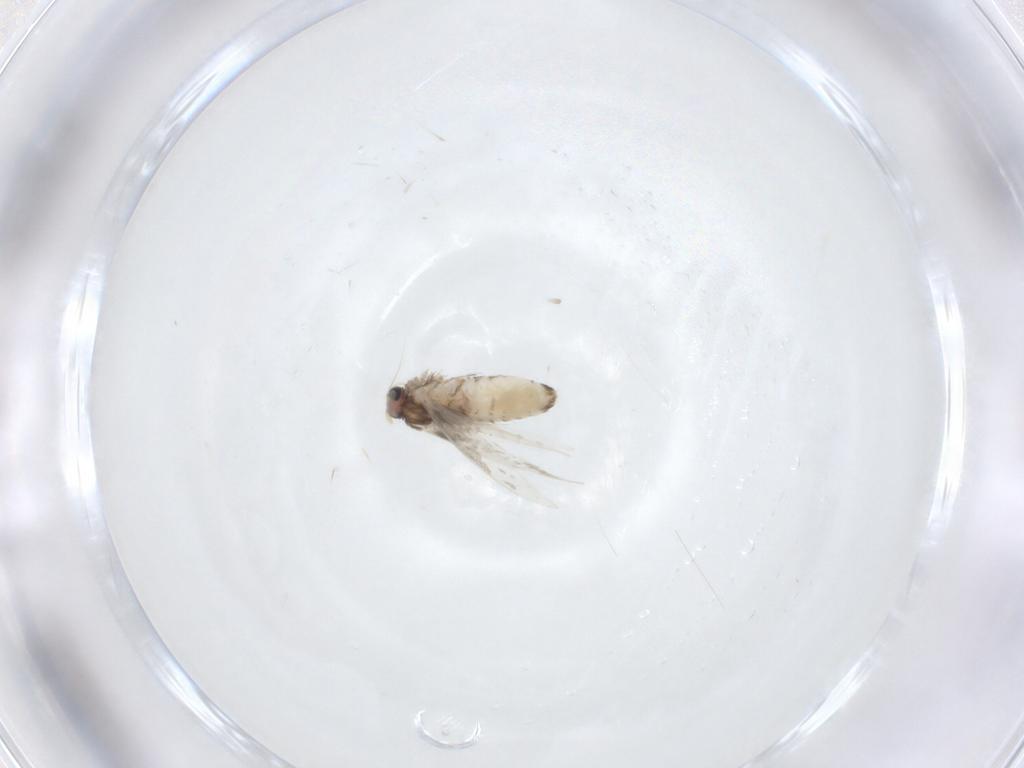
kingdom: Animalia
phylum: Arthropoda
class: Insecta
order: Lepidoptera
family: Nepticulidae
